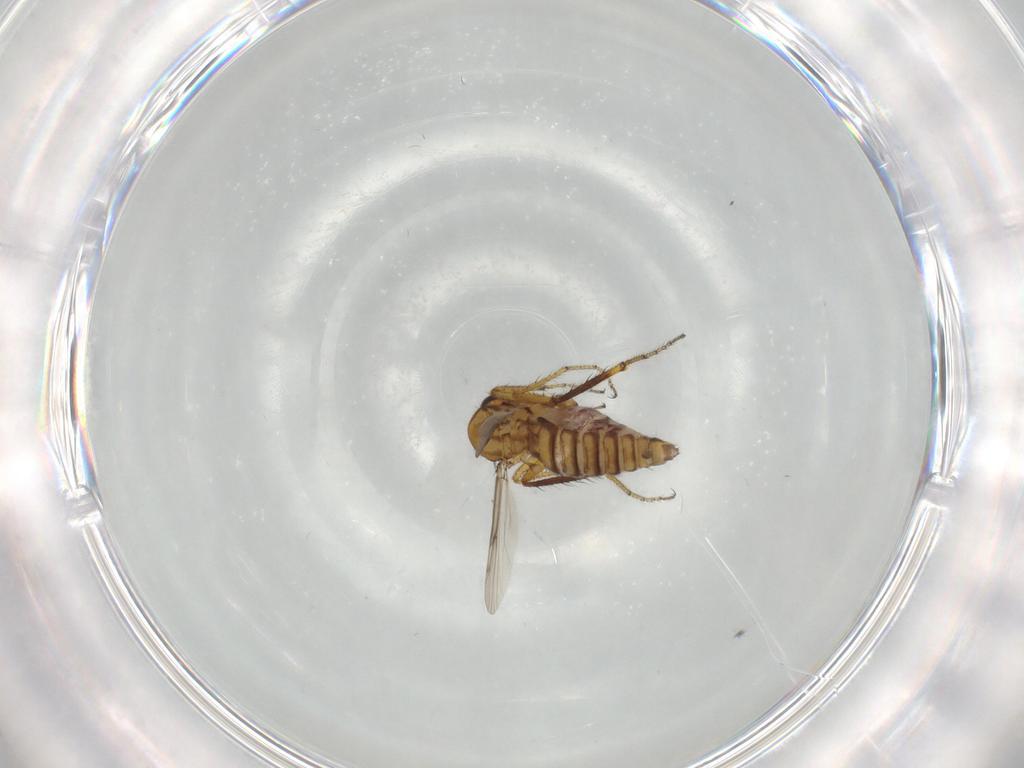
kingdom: Animalia
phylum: Arthropoda
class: Insecta
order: Diptera
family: Ceratopogonidae
